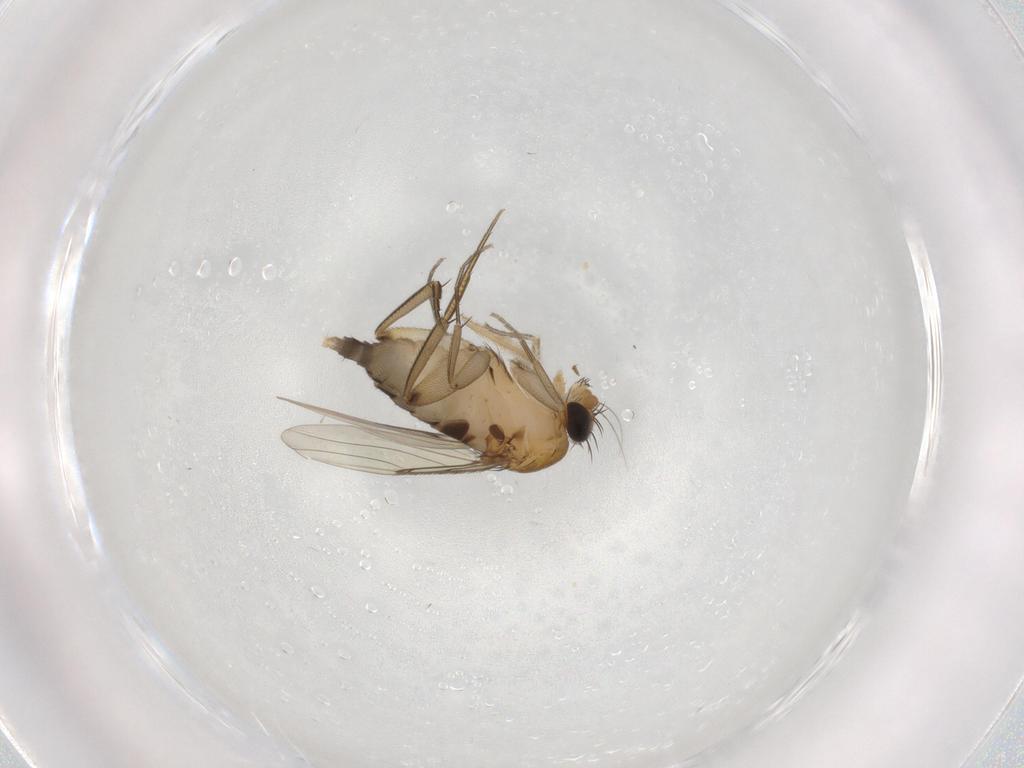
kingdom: Animalia
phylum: Arthropoda
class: Insecta
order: Diptera
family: Phoridae
